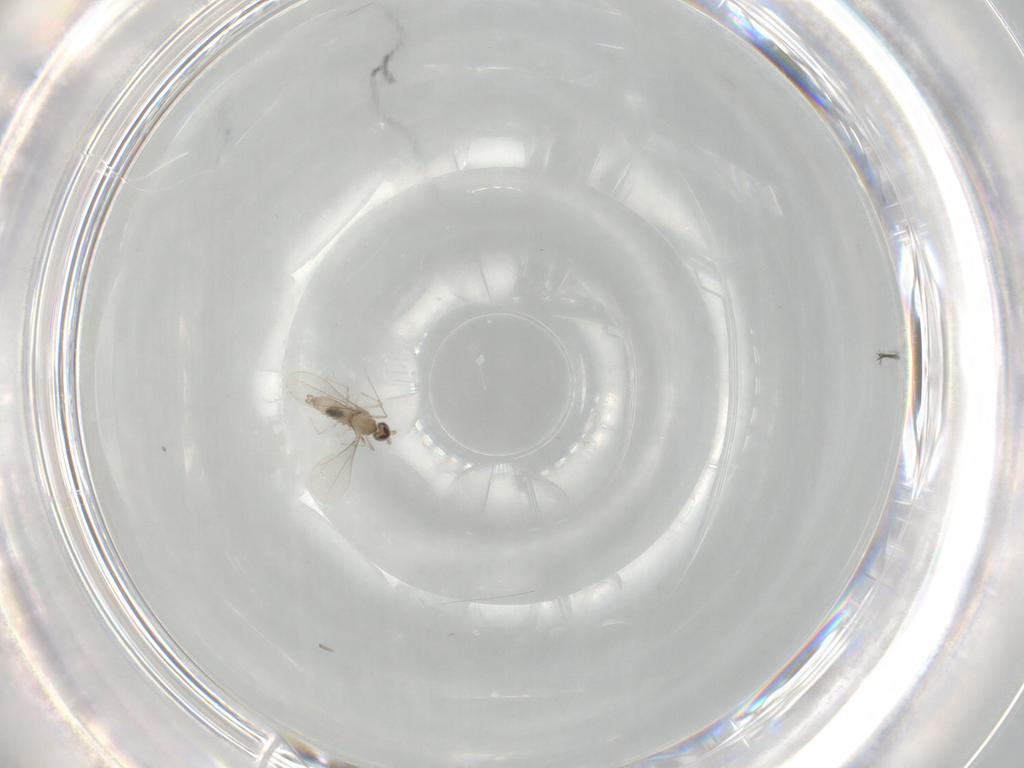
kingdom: Animalia
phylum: Arthropoda
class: Insecta
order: Diptera
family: Cecidomyiidae
